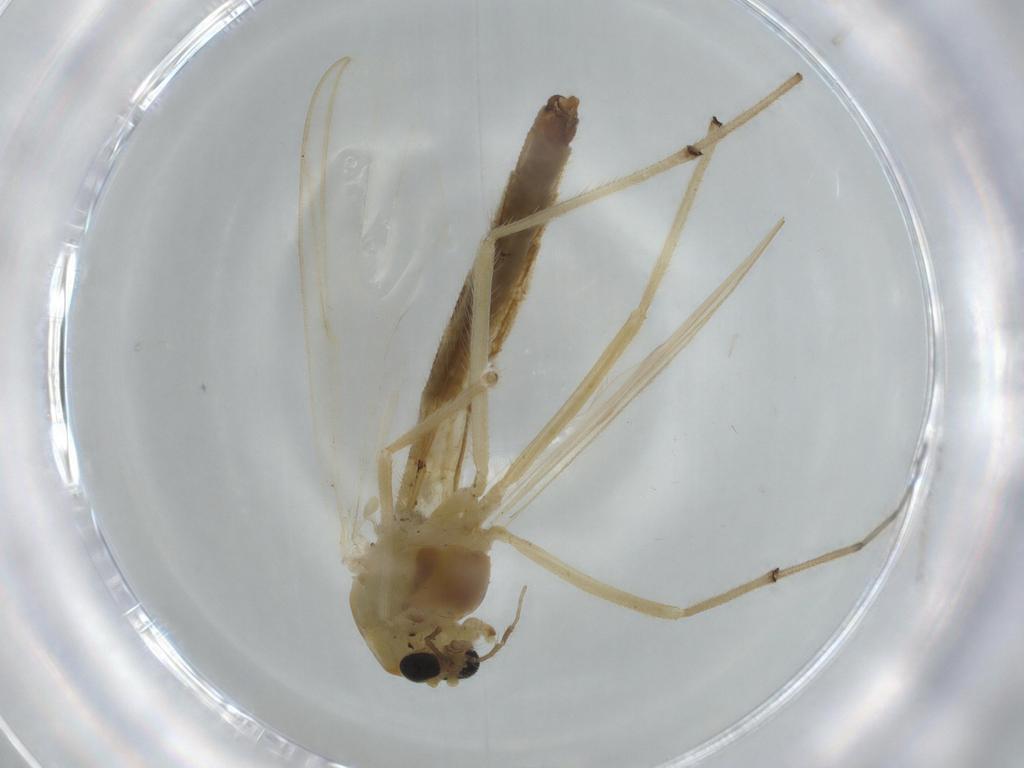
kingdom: Animalia
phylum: Arthropoda
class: Insecta
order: Diptera
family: Chironomidae
